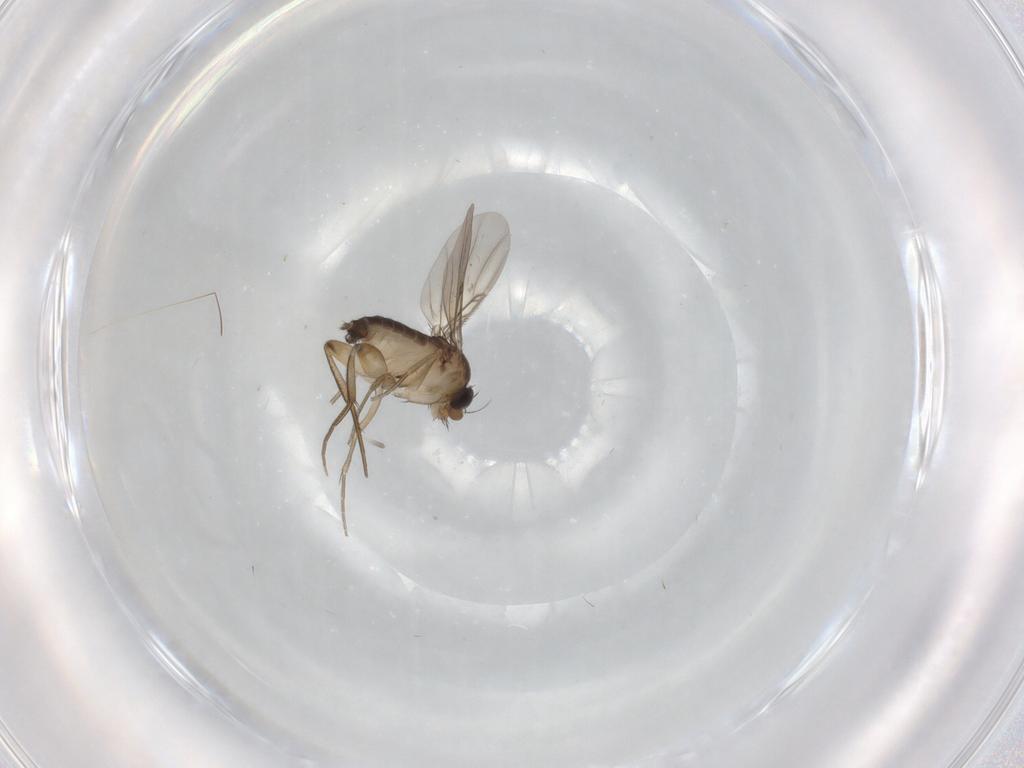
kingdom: Animalia
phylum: Arthropoda
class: Insecta
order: Diptera
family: Phoridae
